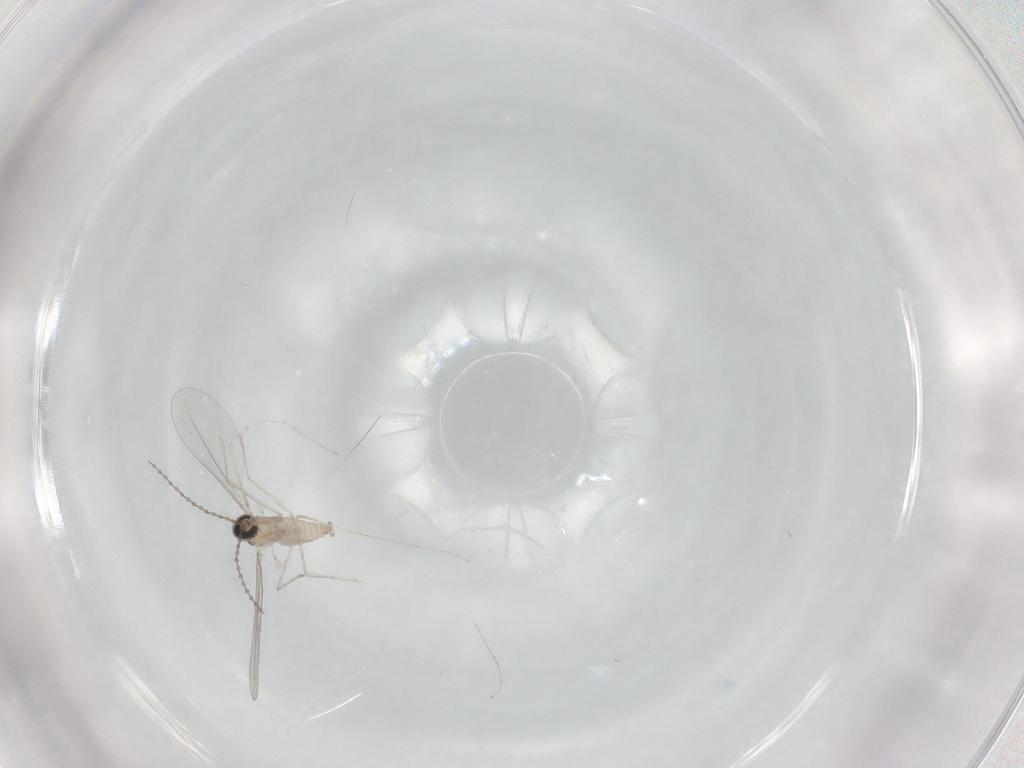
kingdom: Animalia
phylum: Arthropoda
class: Insecta
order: Diptera
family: Cecidomyiidae
